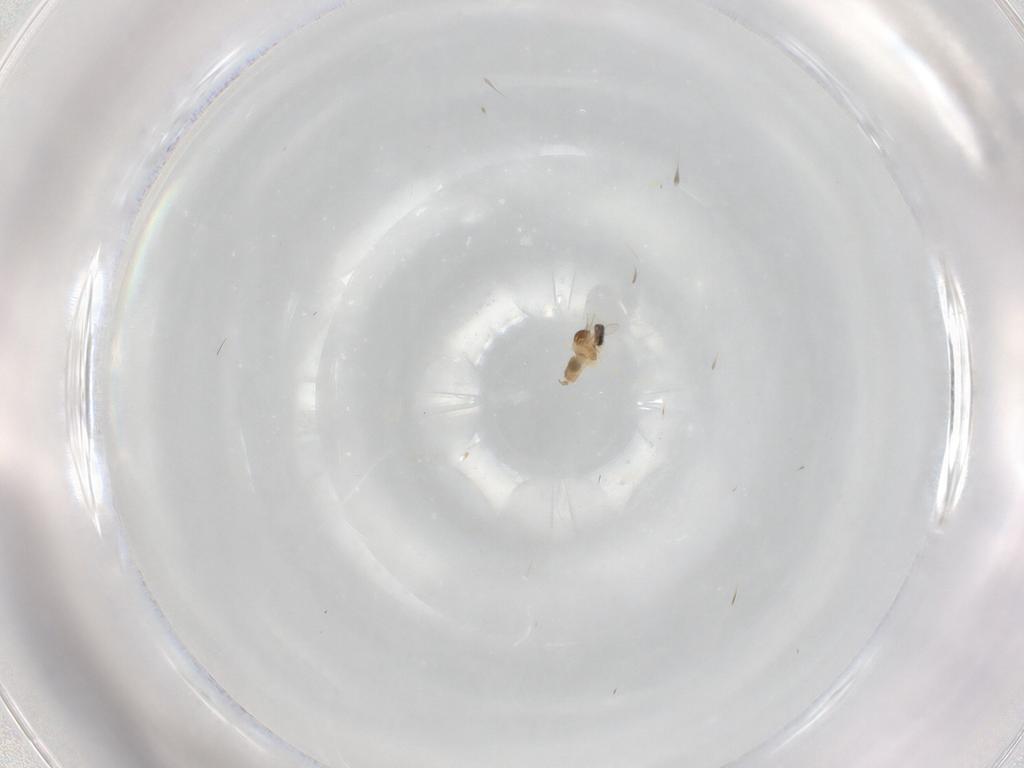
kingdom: Animalia
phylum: Arthropoda
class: Insecta
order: Diptera
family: Cecidomyiidae
